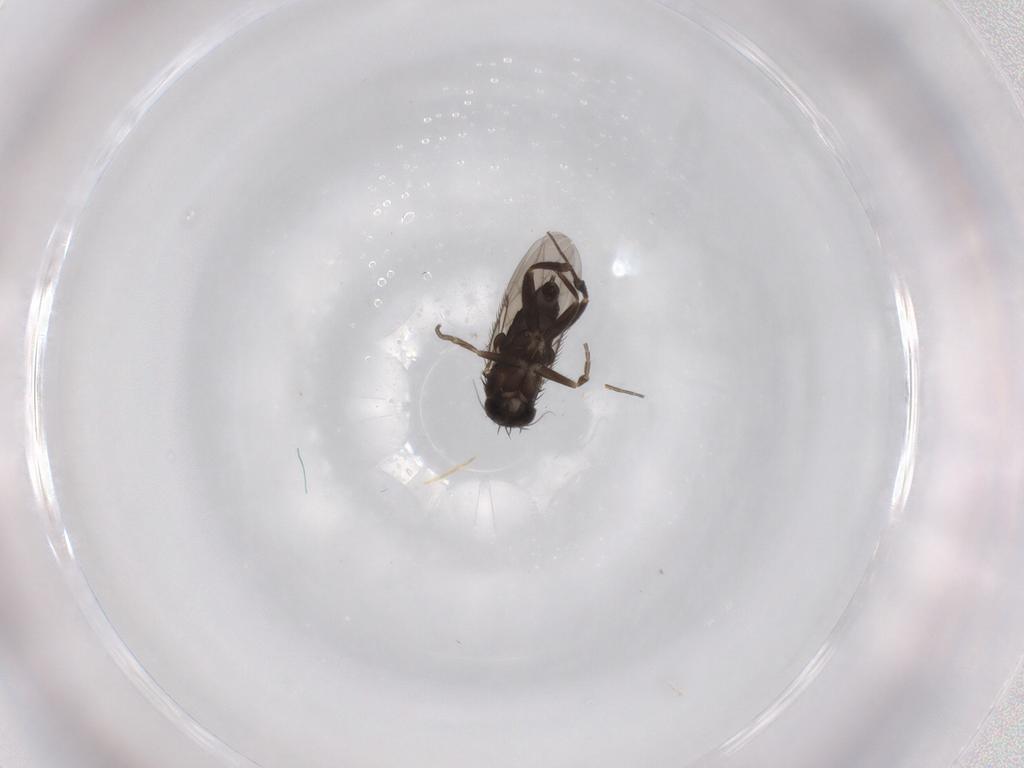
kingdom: Animalia
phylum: Arthropoda
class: Insecta
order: Diptera
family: Phoridae
